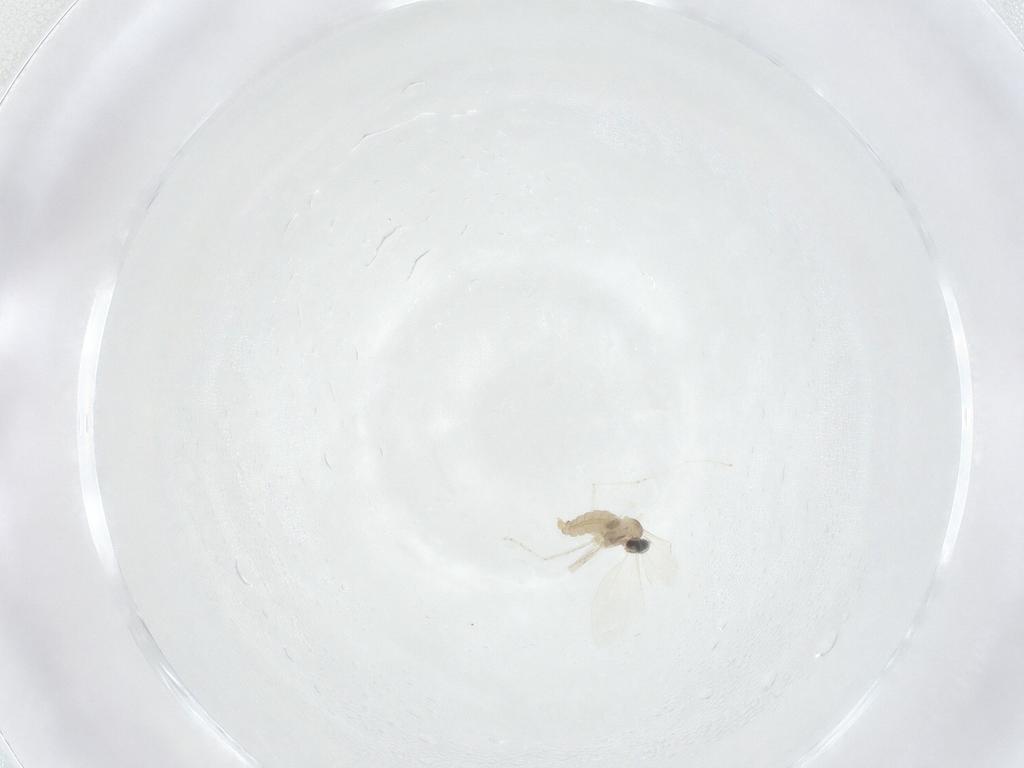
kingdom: Animalia
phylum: Arthropoda
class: Insecta
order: Diptera
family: Cecidomyiidae
